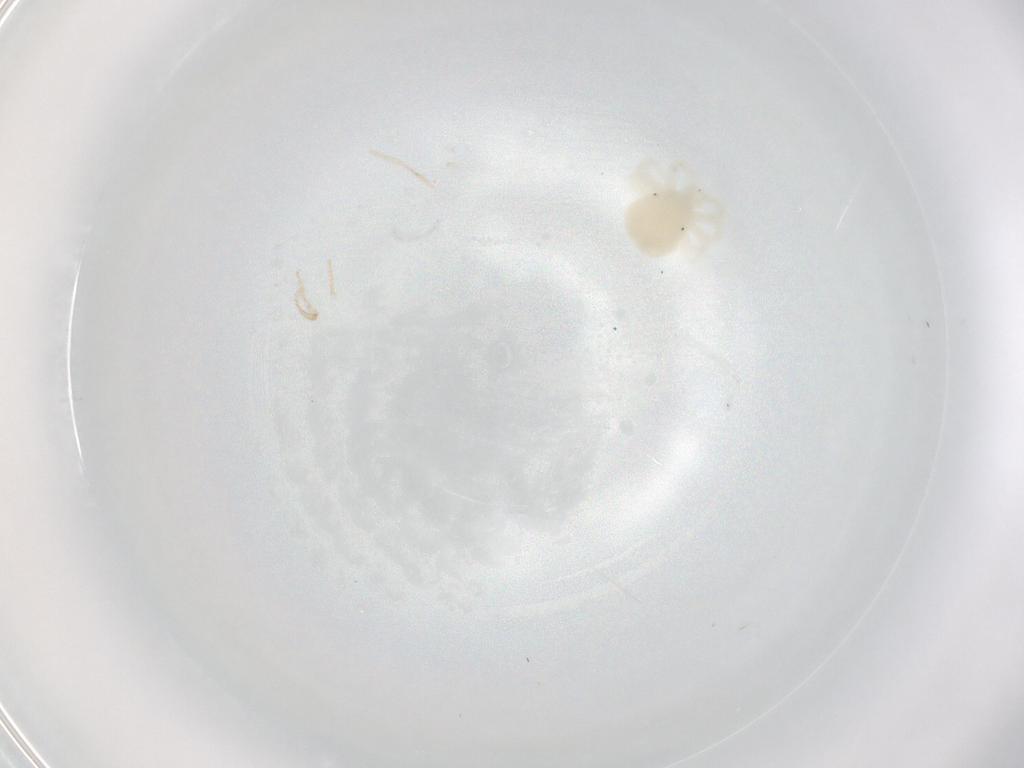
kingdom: Animalia
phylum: Arthropoda
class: Arachnida
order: Trombidiformes
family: Anystidae
